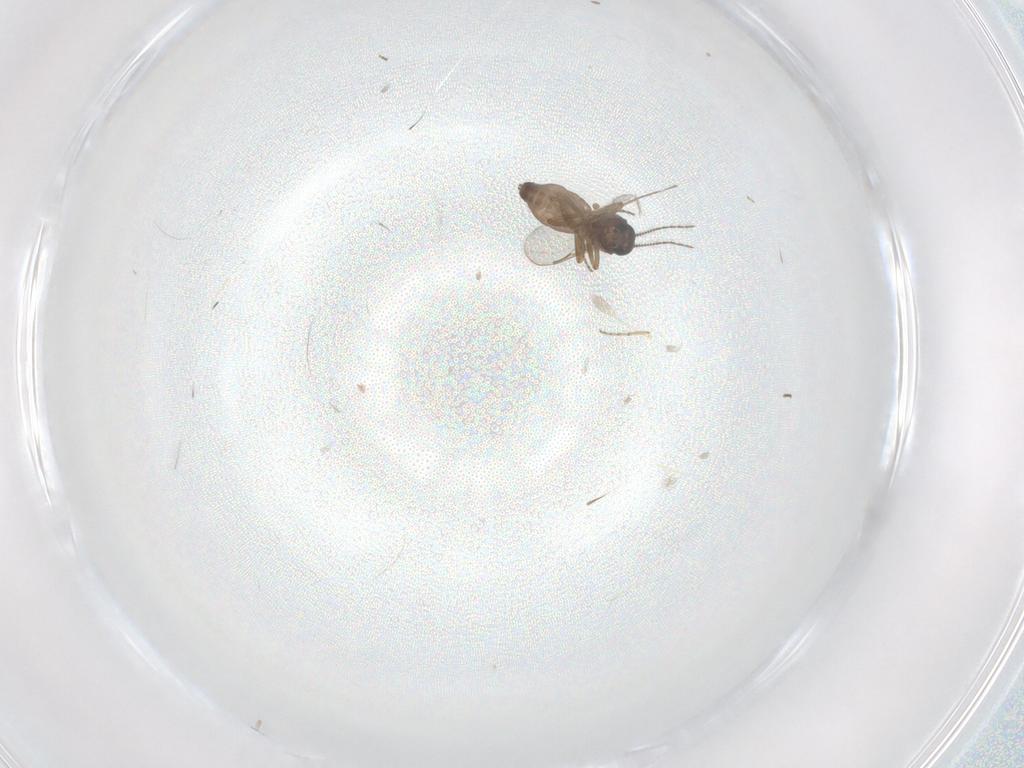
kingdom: Animalia
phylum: Arthropoda
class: Insecta
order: Diptera
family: Ceratopogonidae
